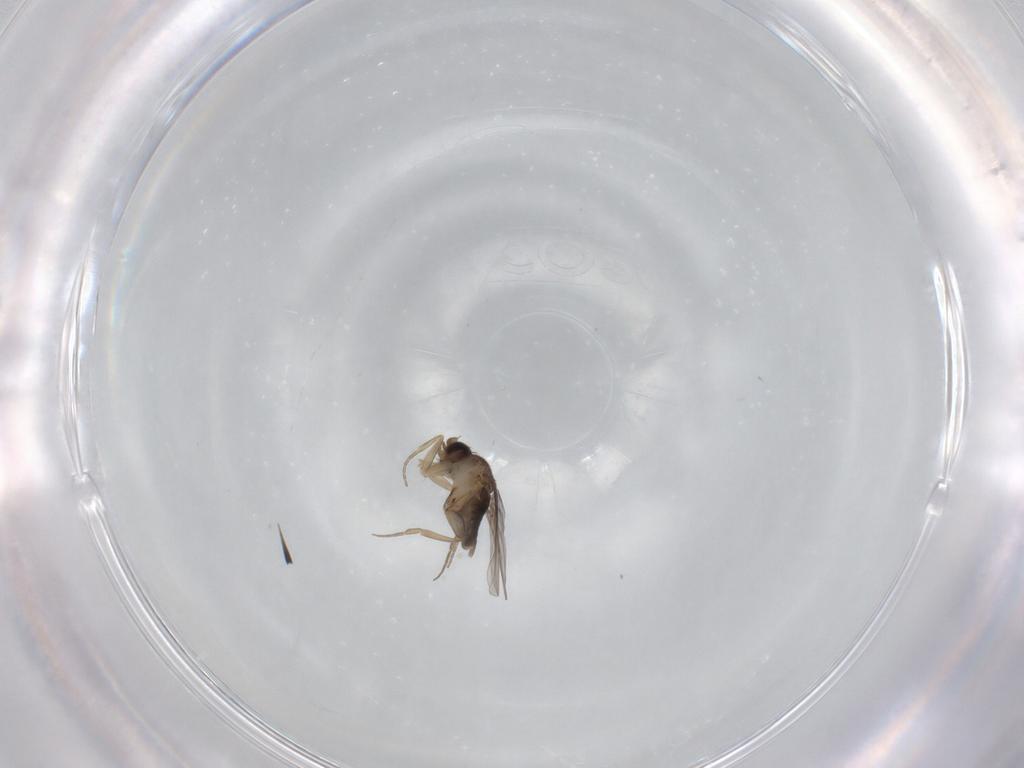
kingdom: Animalia
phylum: Arthropoda
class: Insecta
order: Diptera
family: Phoridae
